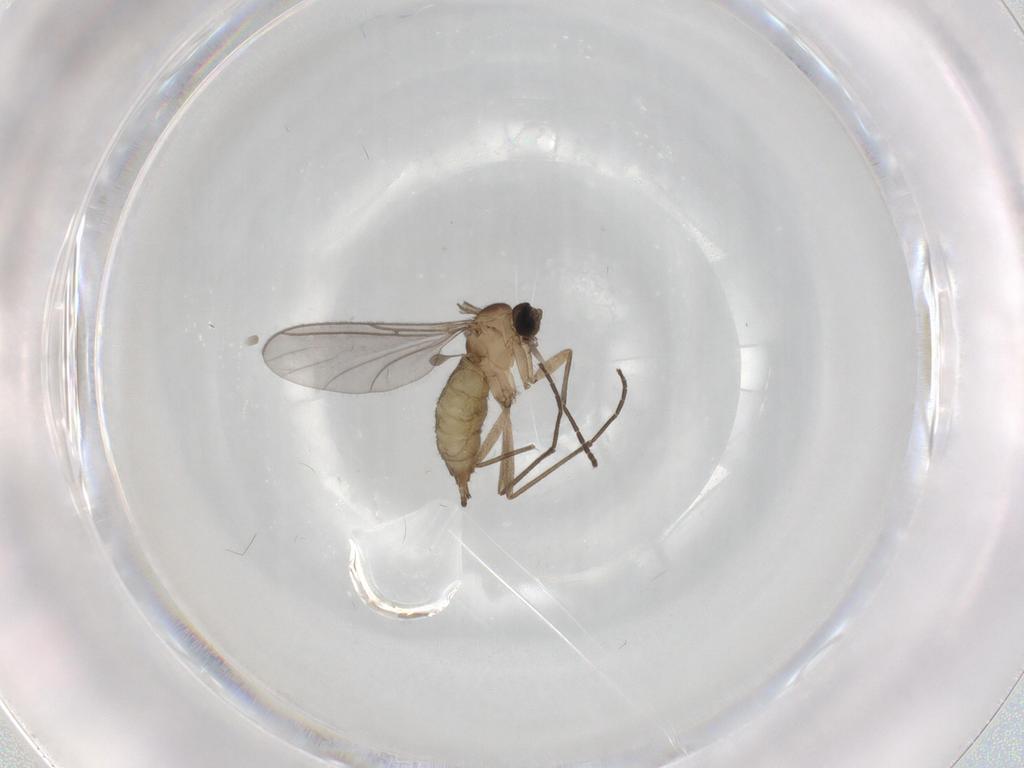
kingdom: Animalia
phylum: Arthropoda
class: Insecta
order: Diptera
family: Sciaridae
